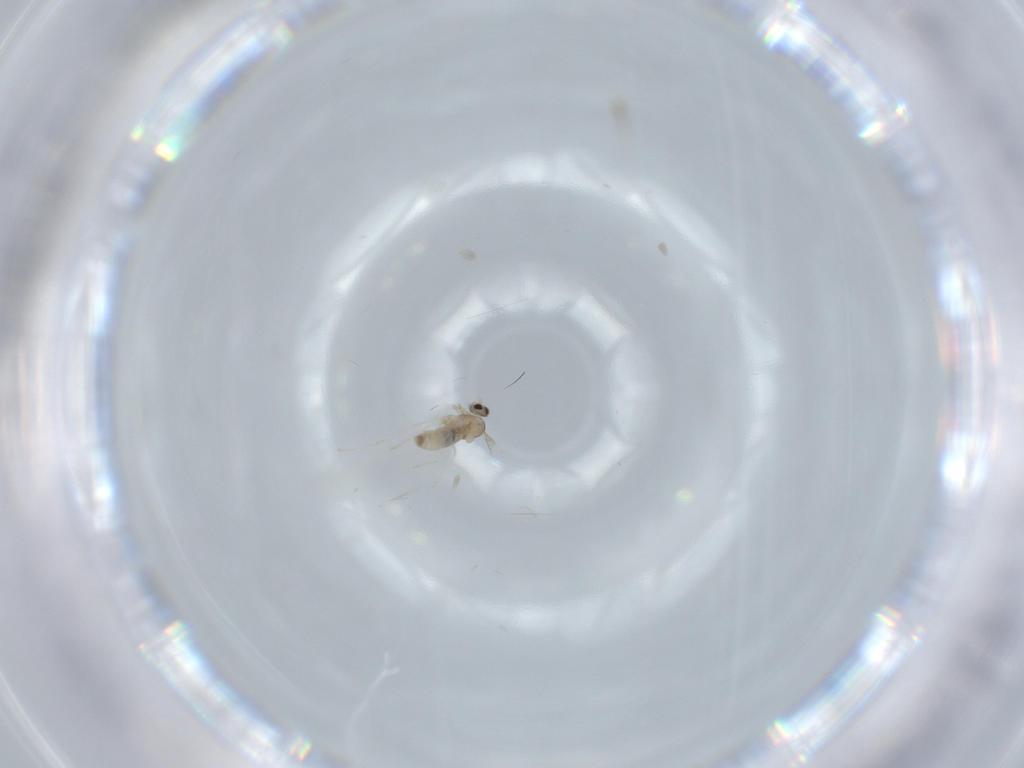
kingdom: Animalia
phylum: Arthropoda
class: Insecta
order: Diptera
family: Cecidomyiidae
